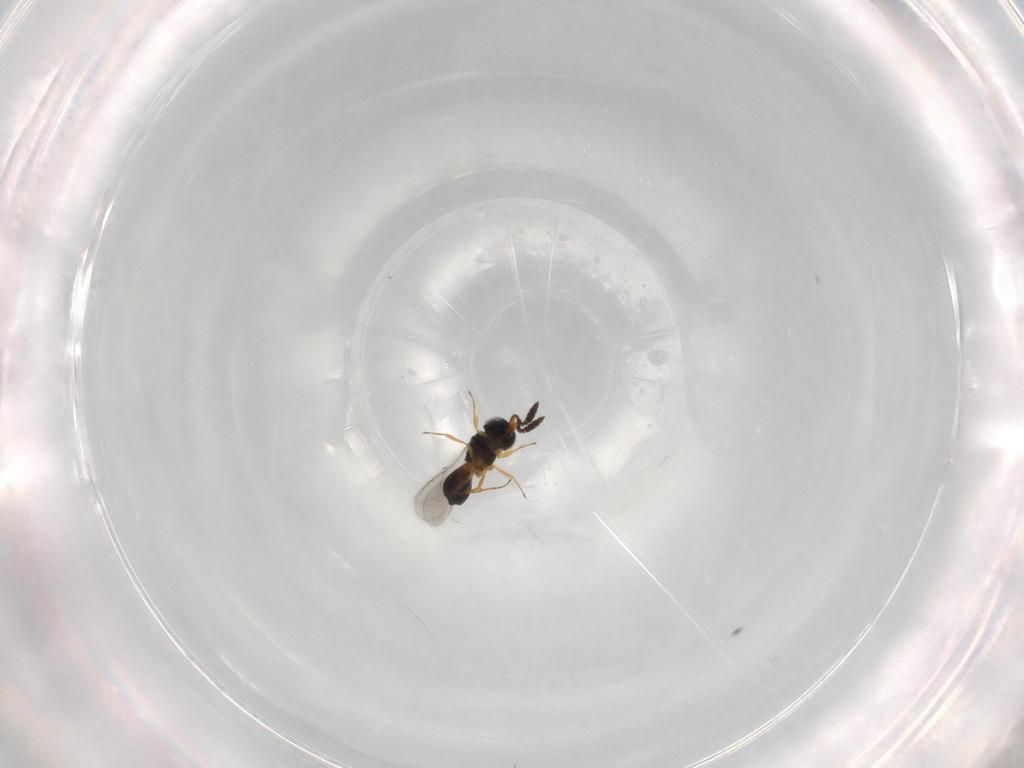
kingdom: Animalia
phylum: Arthropoda
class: Insecta
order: Hymenoptera
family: Scelionidae
